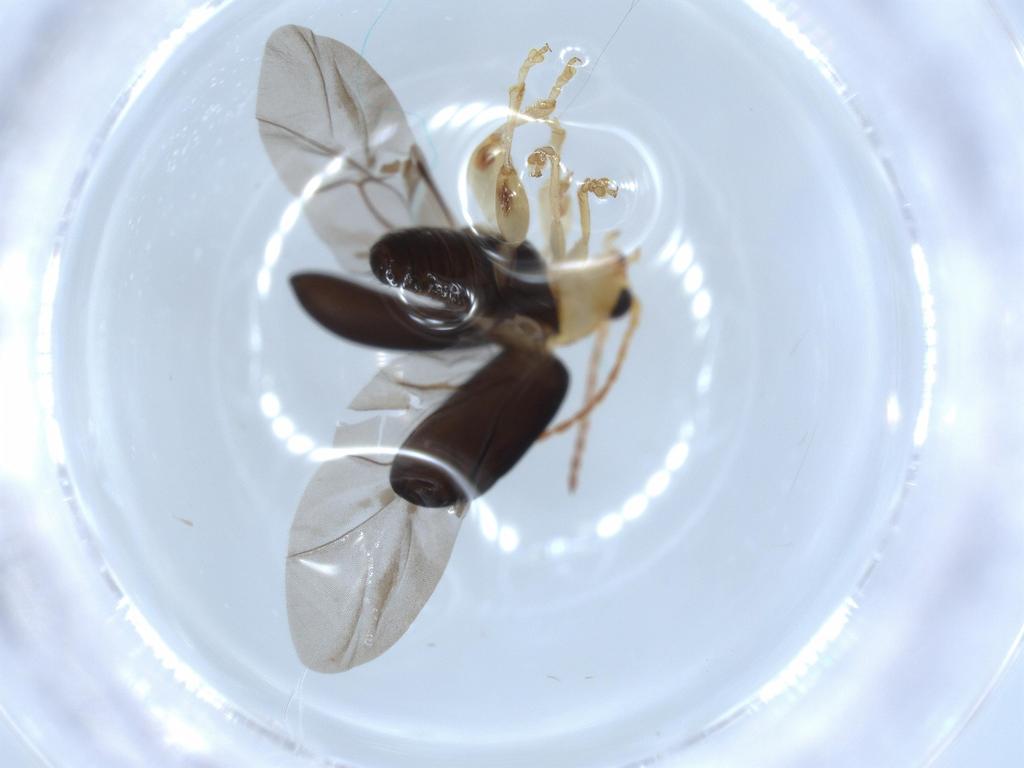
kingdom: Animalia
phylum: Arthropoda
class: Insecta
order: Coleoptera
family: Chrysomelidae
